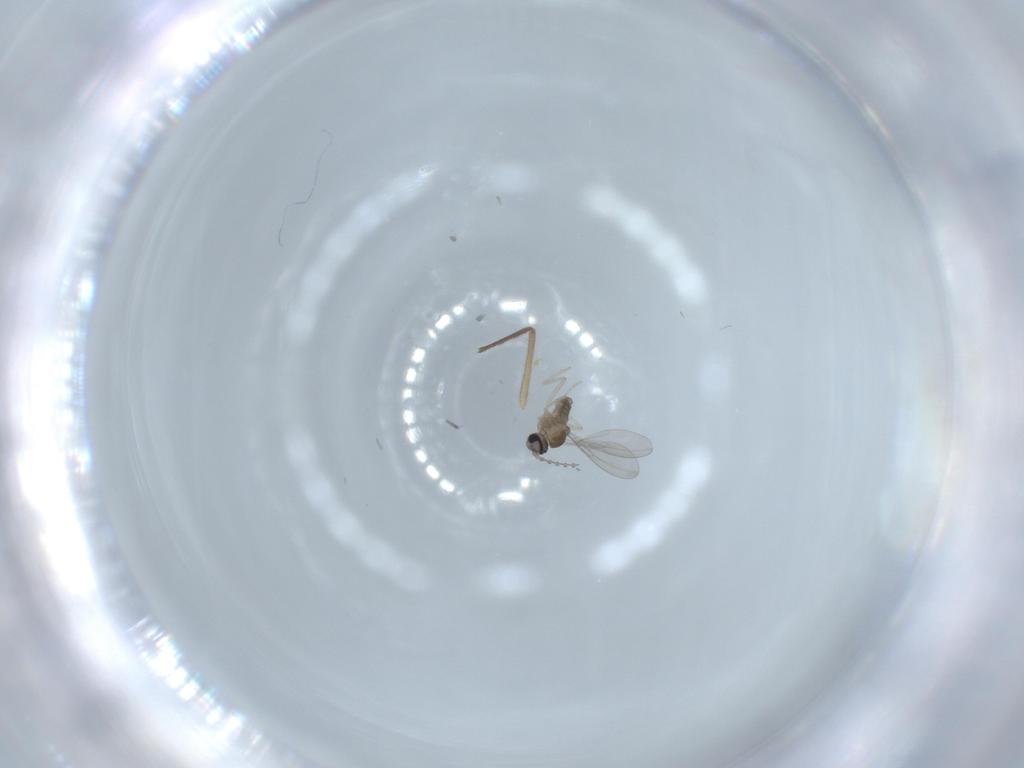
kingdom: Animalia
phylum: Arthropoda
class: Insecta
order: Diptera
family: Chironomidae
